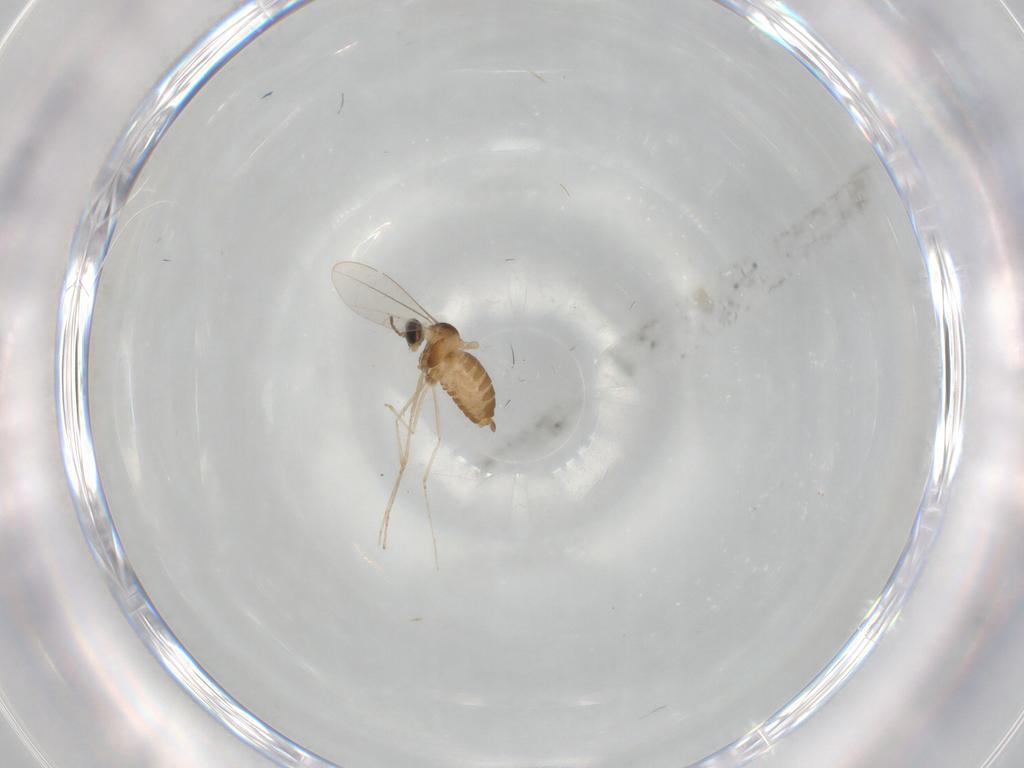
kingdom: Animalia
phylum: Arthropoda
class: Insecta
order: Diptera
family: Cecidomyiidae
